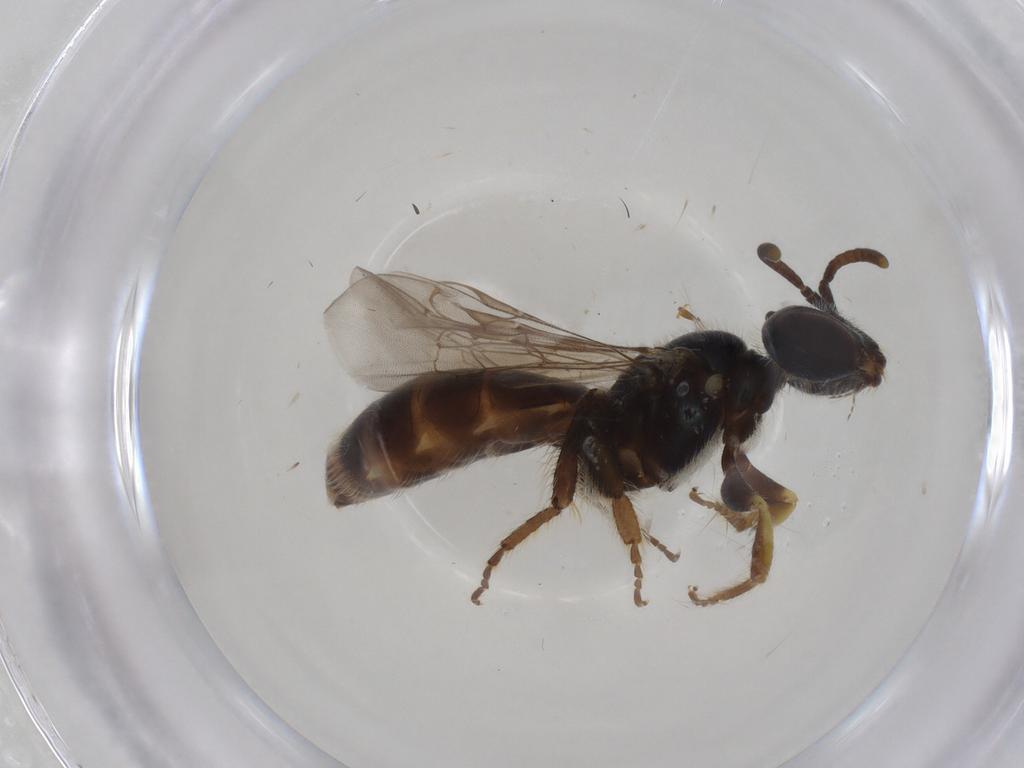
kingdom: Animalia
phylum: Arthropoda
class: Insecta
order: Hymenoptera
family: Andrenidae
